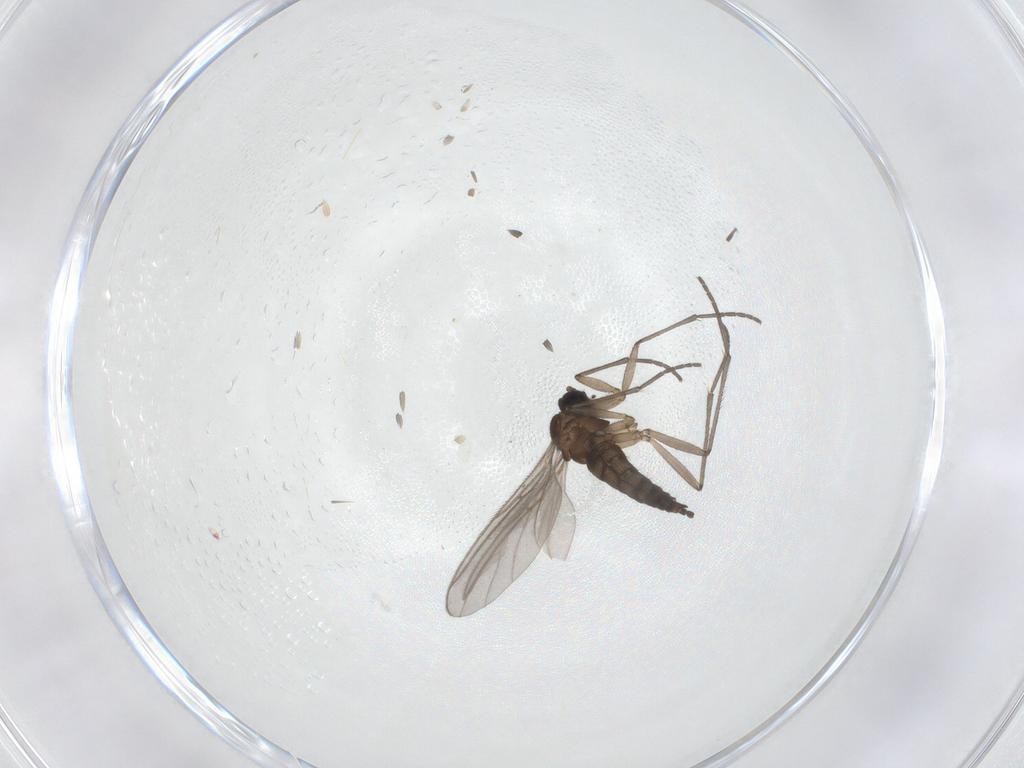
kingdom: Animalia
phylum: Arthropoda
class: Insecta
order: Diptera
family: Sciaridae
